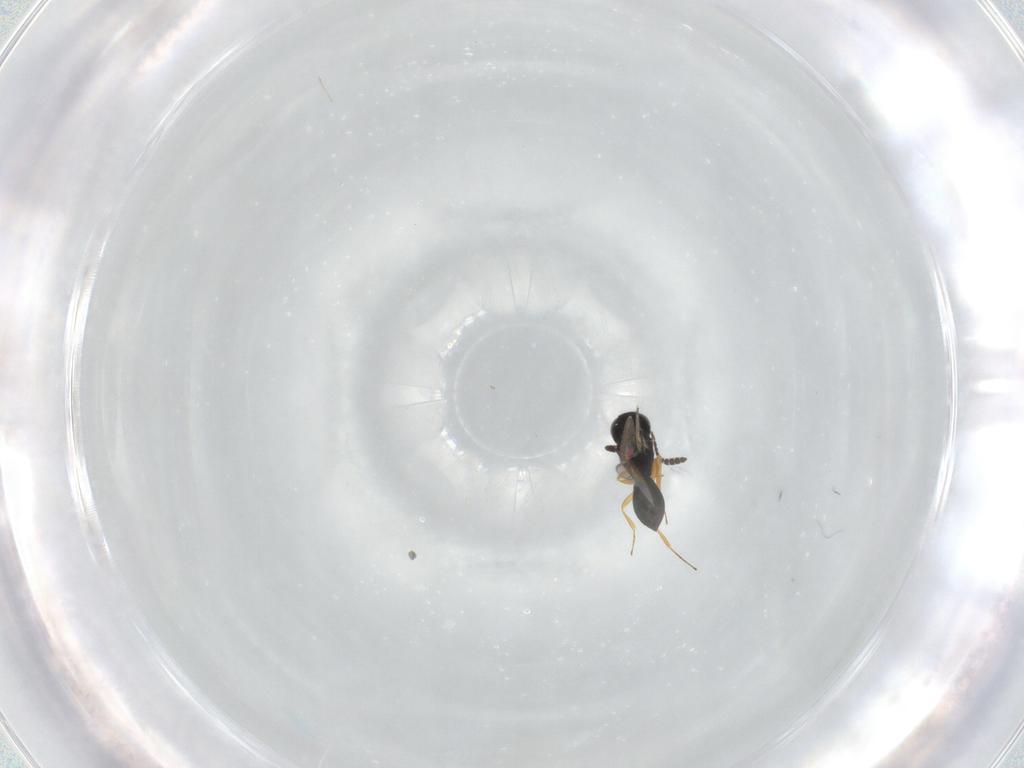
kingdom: Animalia
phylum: Arthropoda
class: Insecta
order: Hymenoptera
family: Scelionidae
